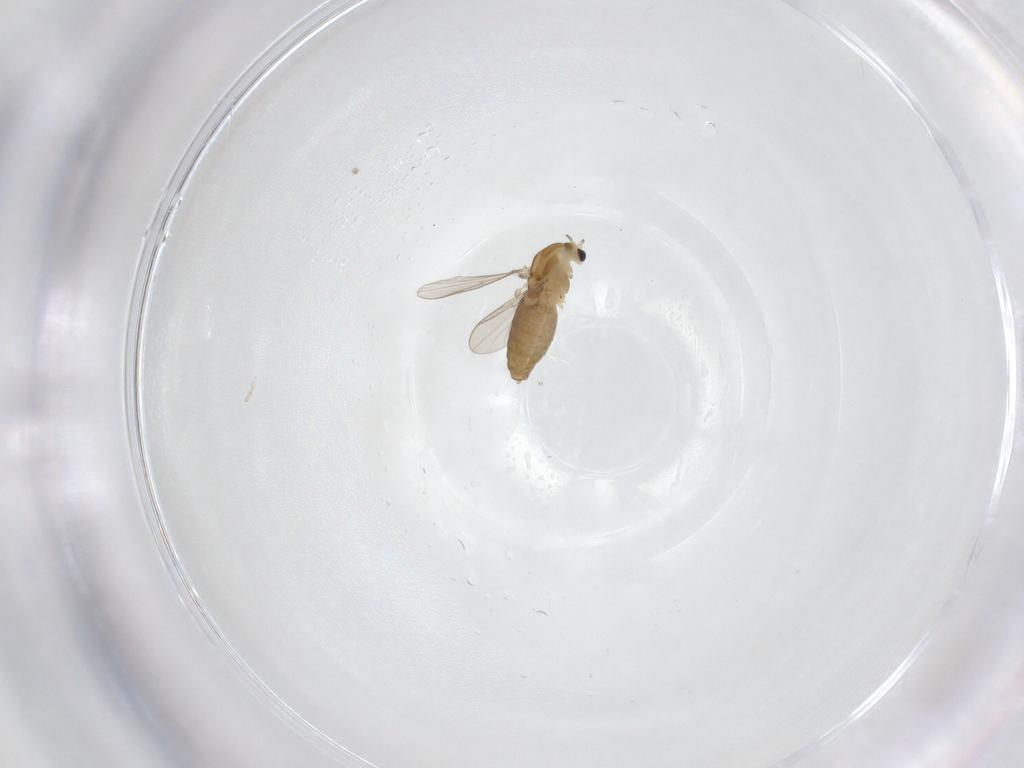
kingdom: Animalia
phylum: Arthropoda
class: Insecta
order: Diptera
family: Chironomidae
